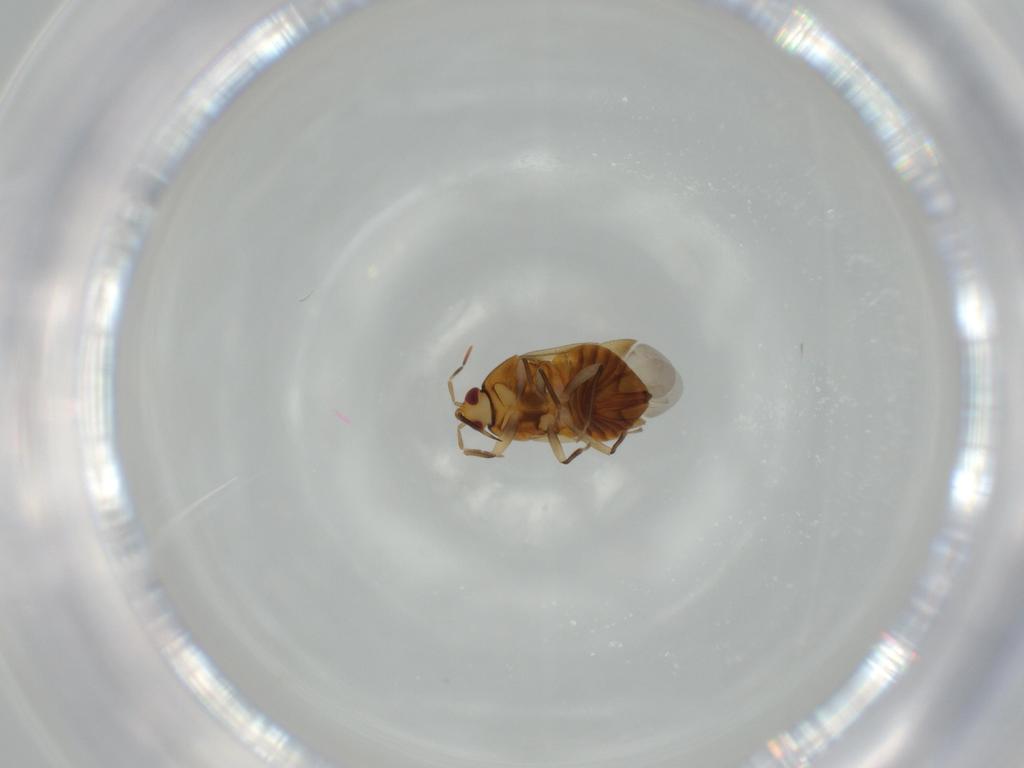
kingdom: Animalia
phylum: Arthropoda
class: Insecta
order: Hemiptera
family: Anthocoridae
